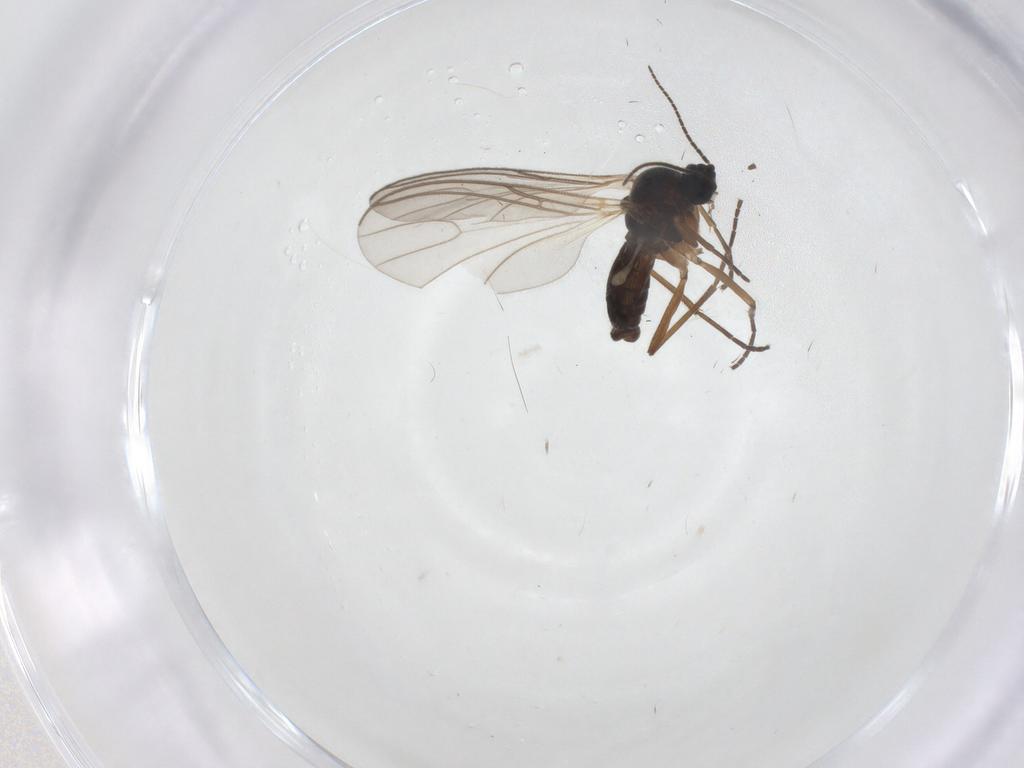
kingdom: Animalia
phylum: Arthropoda
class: Insecta
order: Diptera
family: Sciaridae
